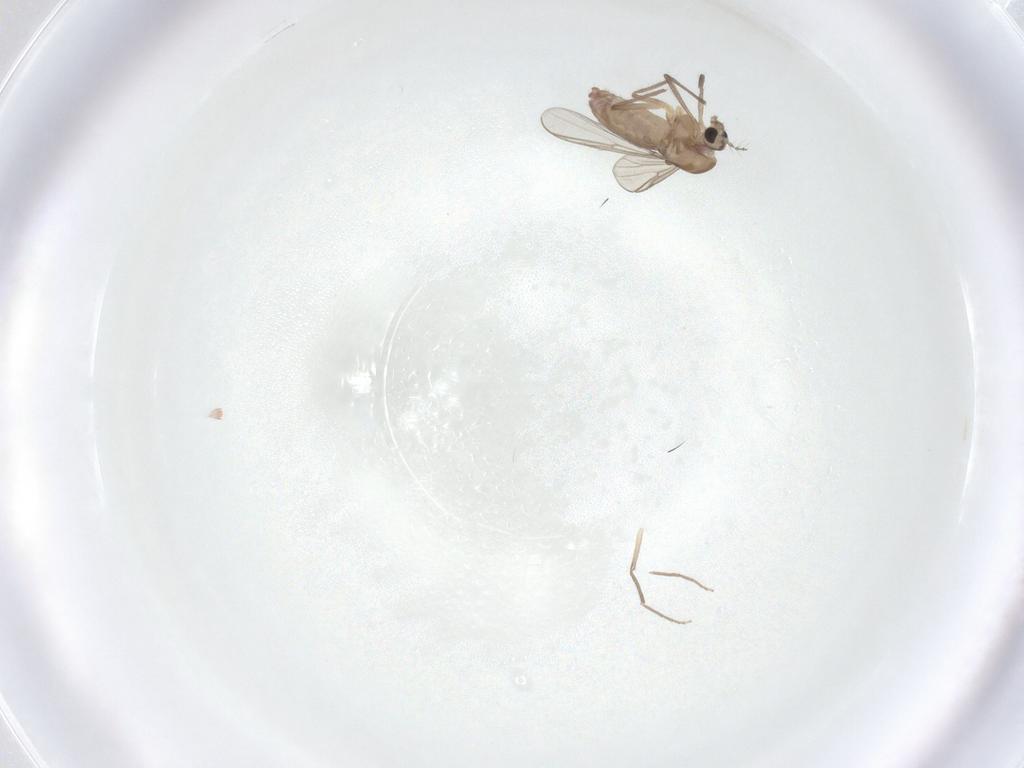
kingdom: Animalia
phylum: Arthropoda
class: Insecta
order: Diptera
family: Chironomidae
